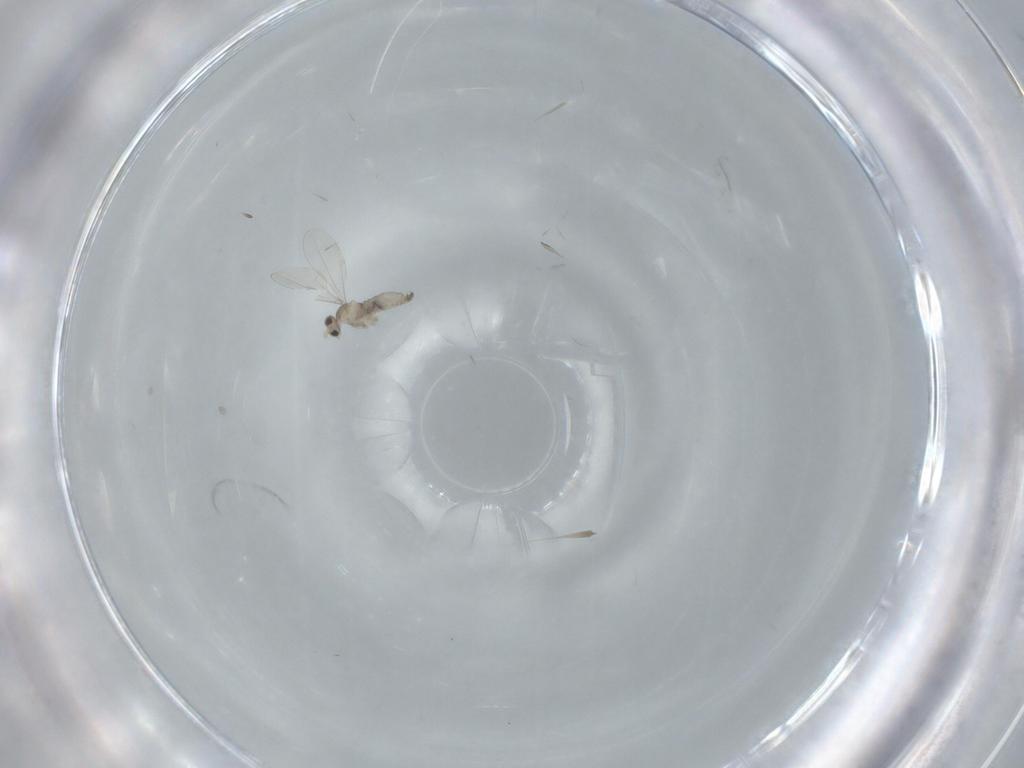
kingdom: Animalia
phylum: Arthropoda
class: Insecta
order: Diptera
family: Cecidomyiidae
